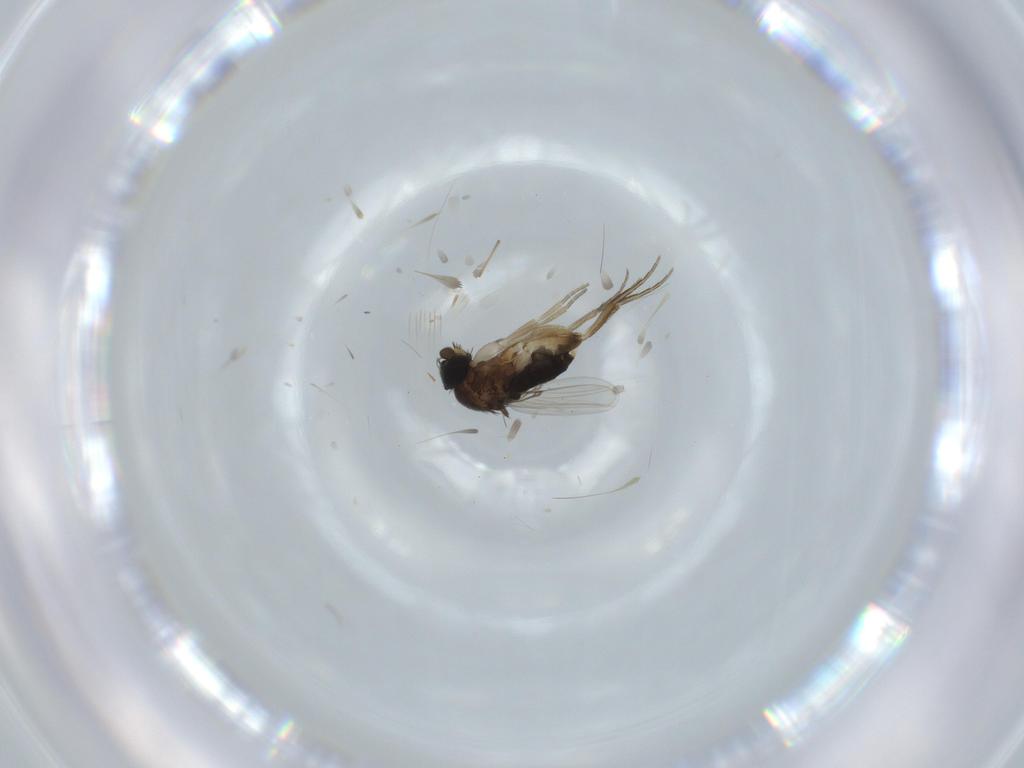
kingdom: Animalia
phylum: Arthropoda
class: Insecta
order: Diptera
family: Phoridae
